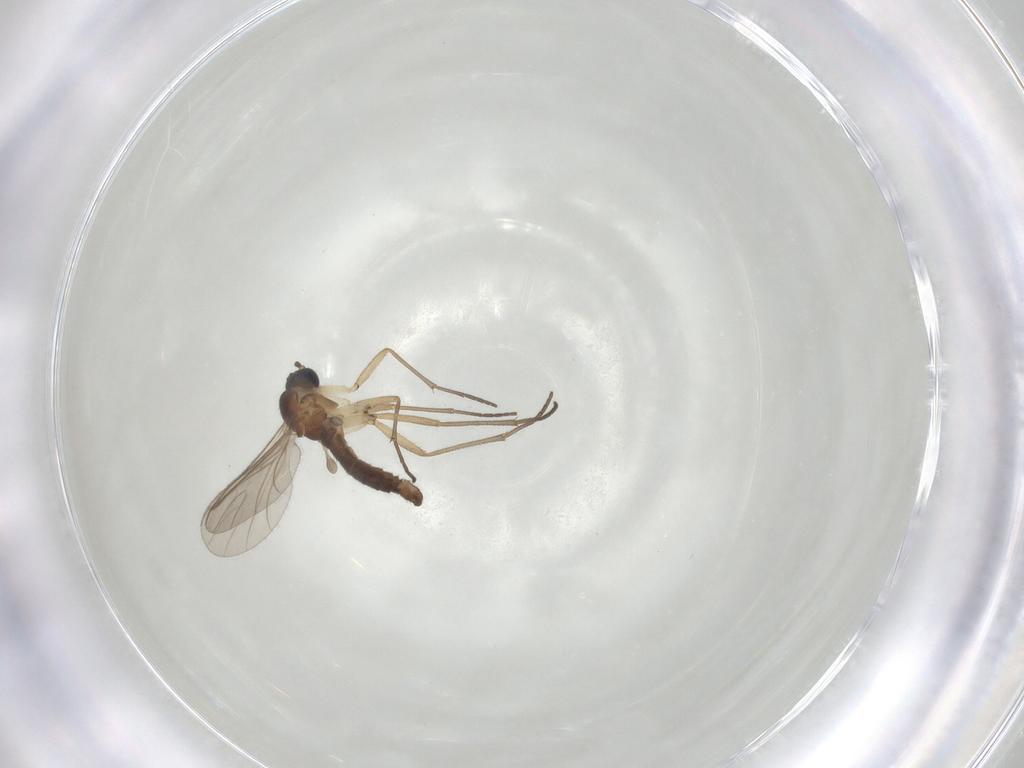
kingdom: Animalia
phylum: Arthropoda
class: Insecta
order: Diptera
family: Sciaridae
